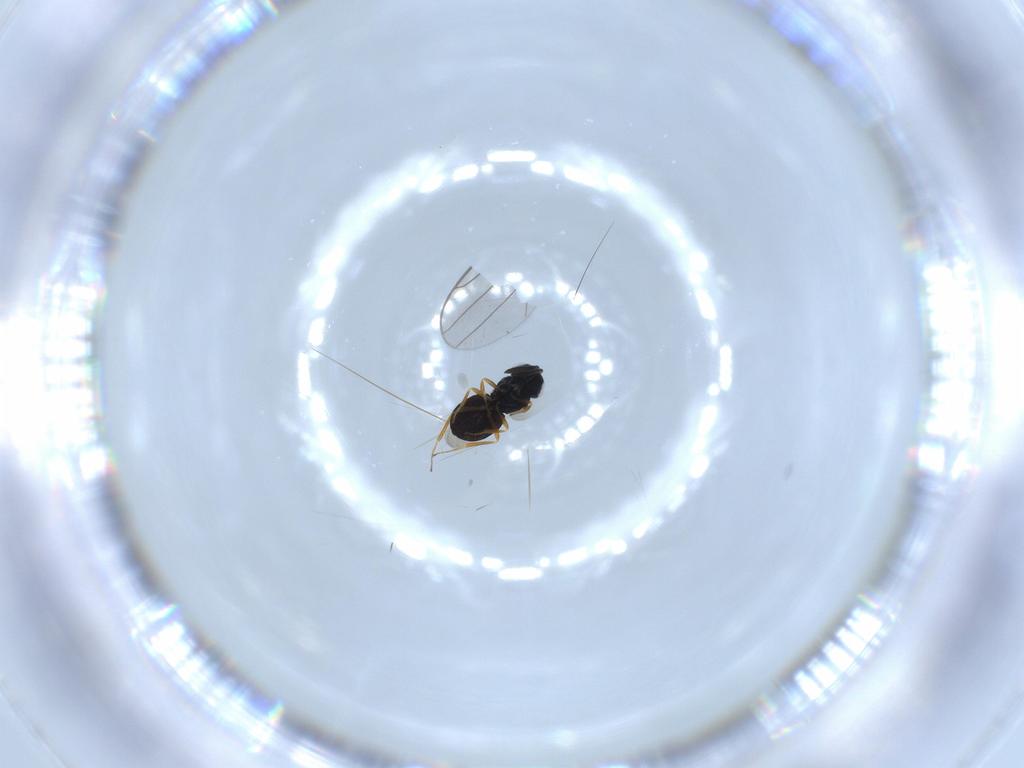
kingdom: Animalia
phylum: Arthropoda
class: Insecta
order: Hymenoptera
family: Scelionidae
